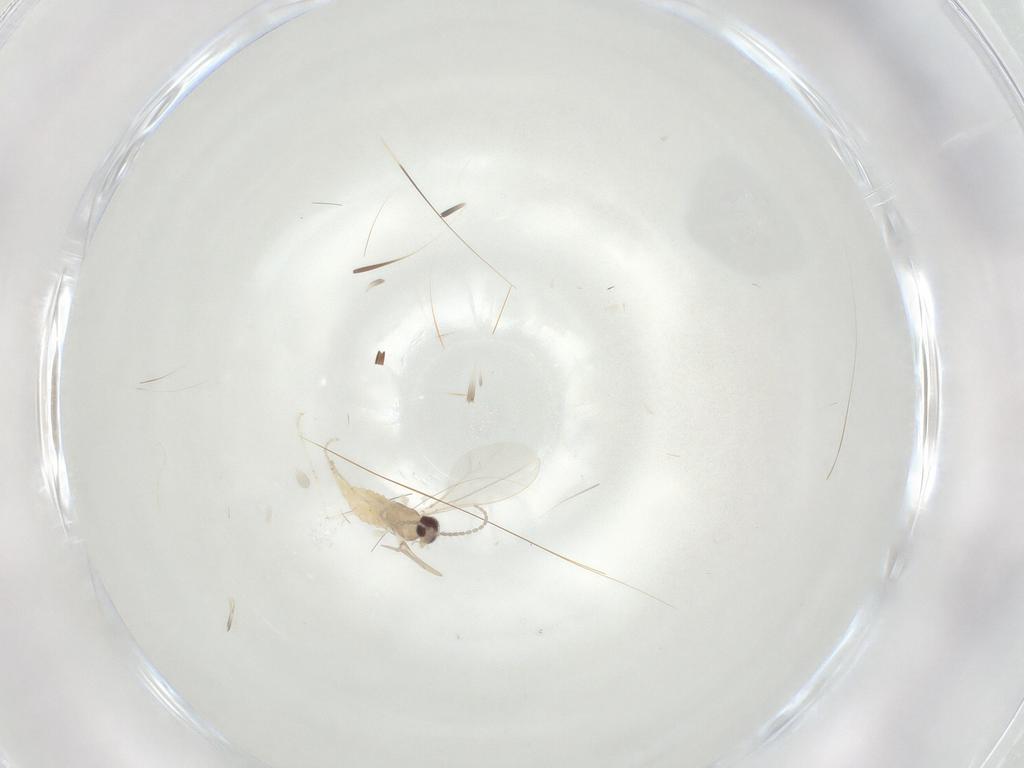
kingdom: Animalia
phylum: Arthropoda
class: Insecta
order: Diptera
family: Cecidomyiidae
